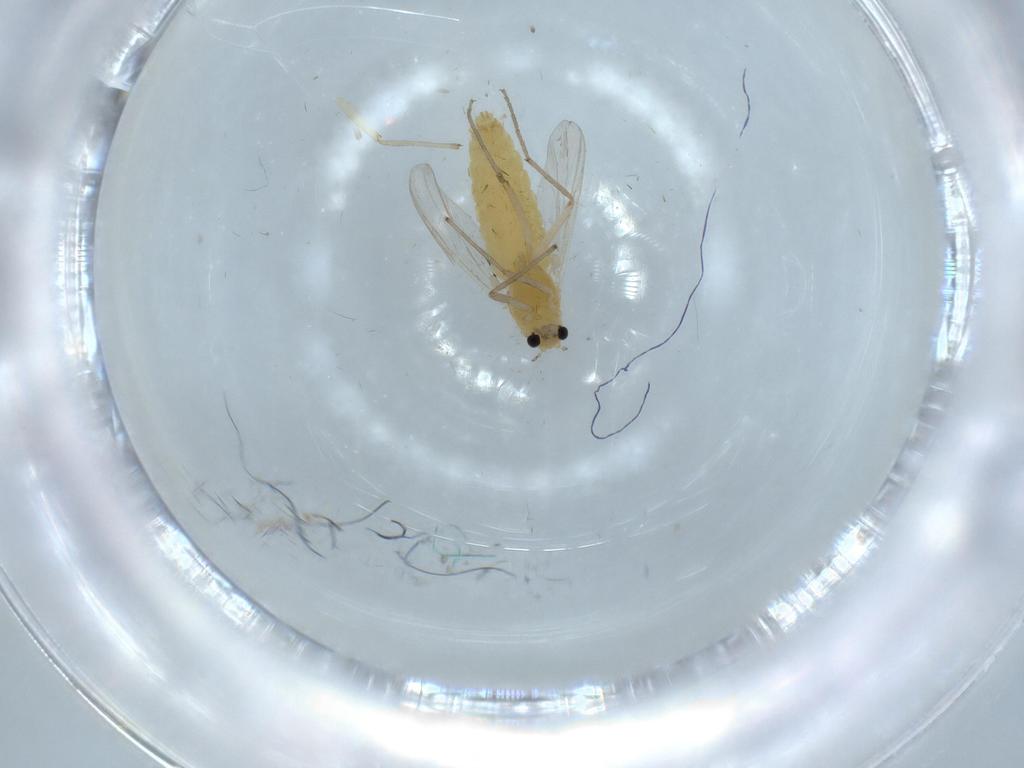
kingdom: Animalia
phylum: Arthropoda
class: Insecta
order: Diptera
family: Chironomidae
